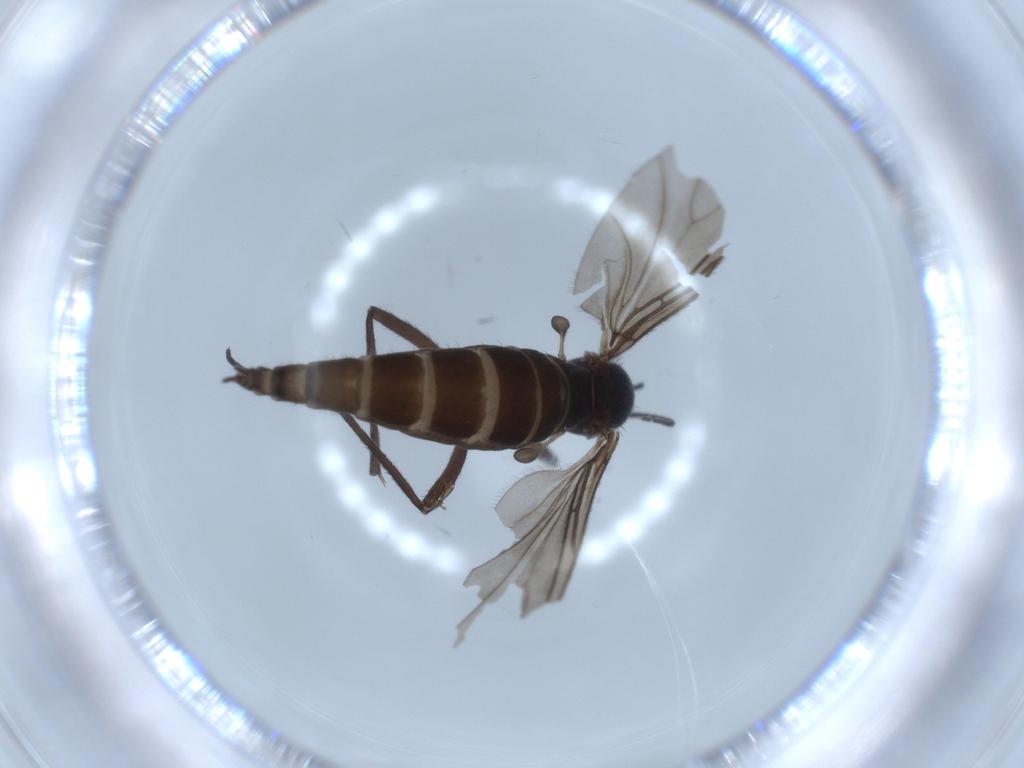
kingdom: Animalia
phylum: Arthropoda
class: Insecta
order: Diptera
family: Sciaridae
